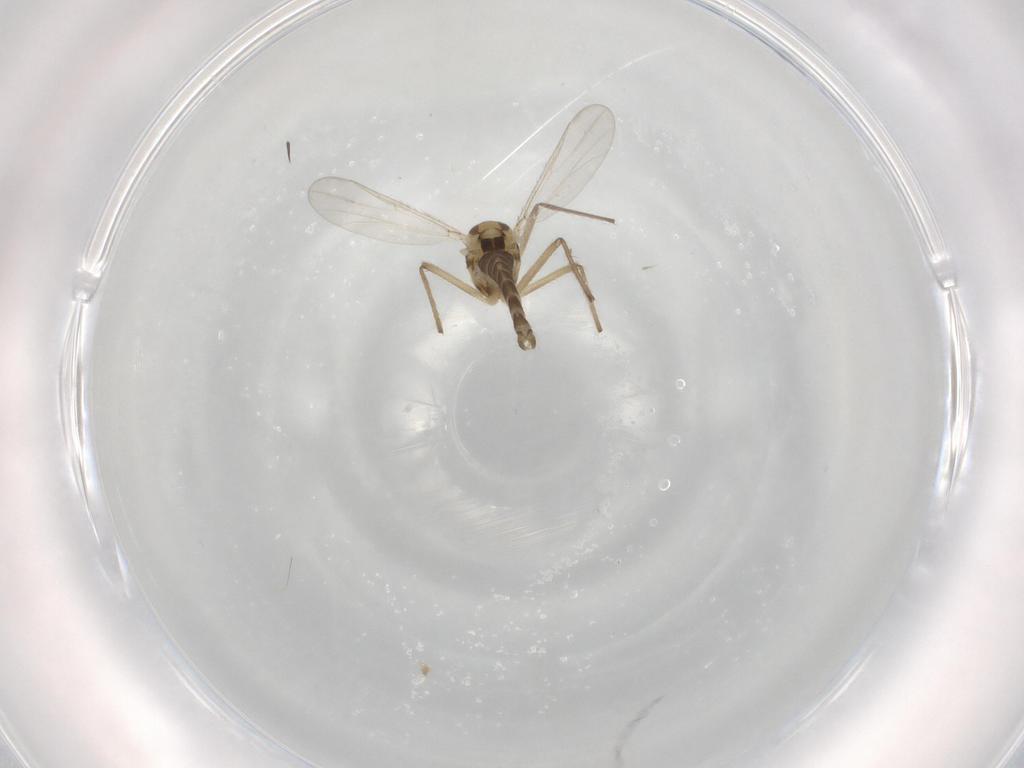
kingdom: Animalia
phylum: Arthropoda
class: Insecta
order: Diptera
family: Chironomidae
